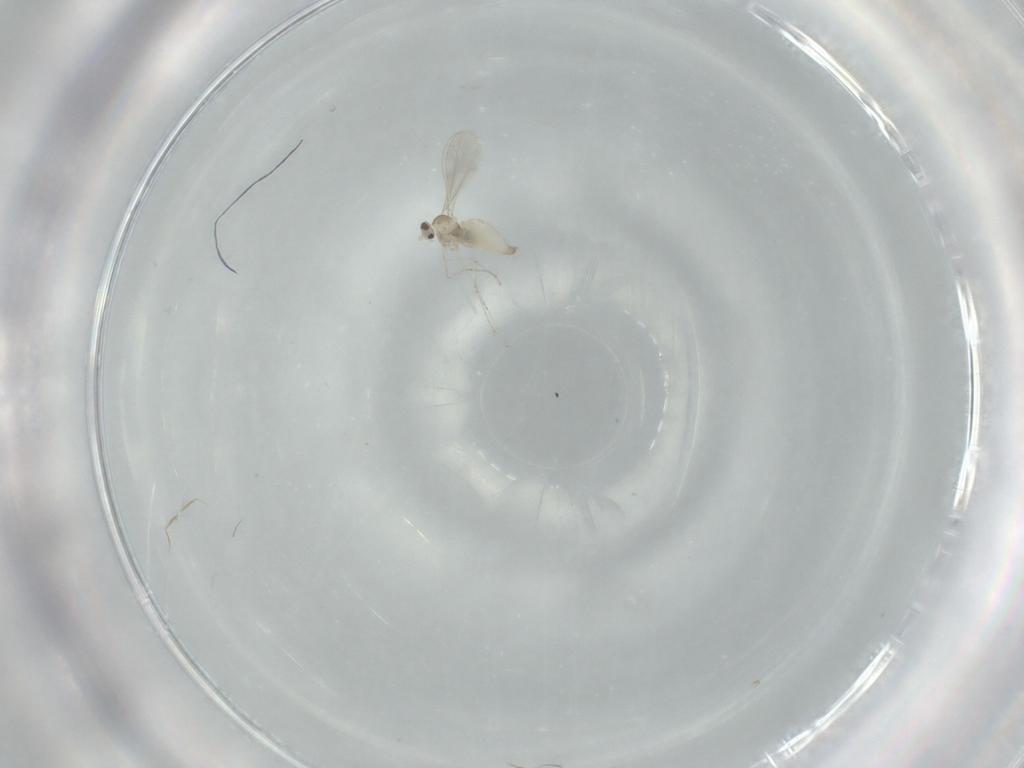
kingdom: Animalia
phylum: Arthropoda
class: Insecta
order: Diptera
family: Cecidomyiidae
